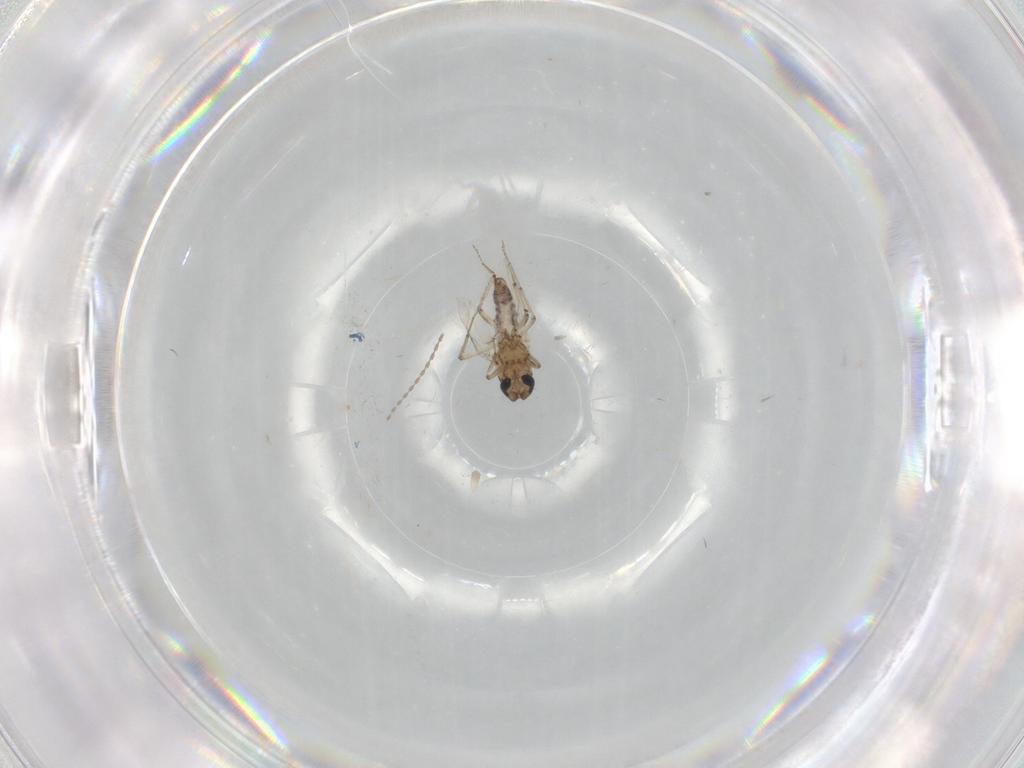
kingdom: Animalia
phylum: Arthropoda
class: Insecta
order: Diptera
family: Ceratopogonidae
